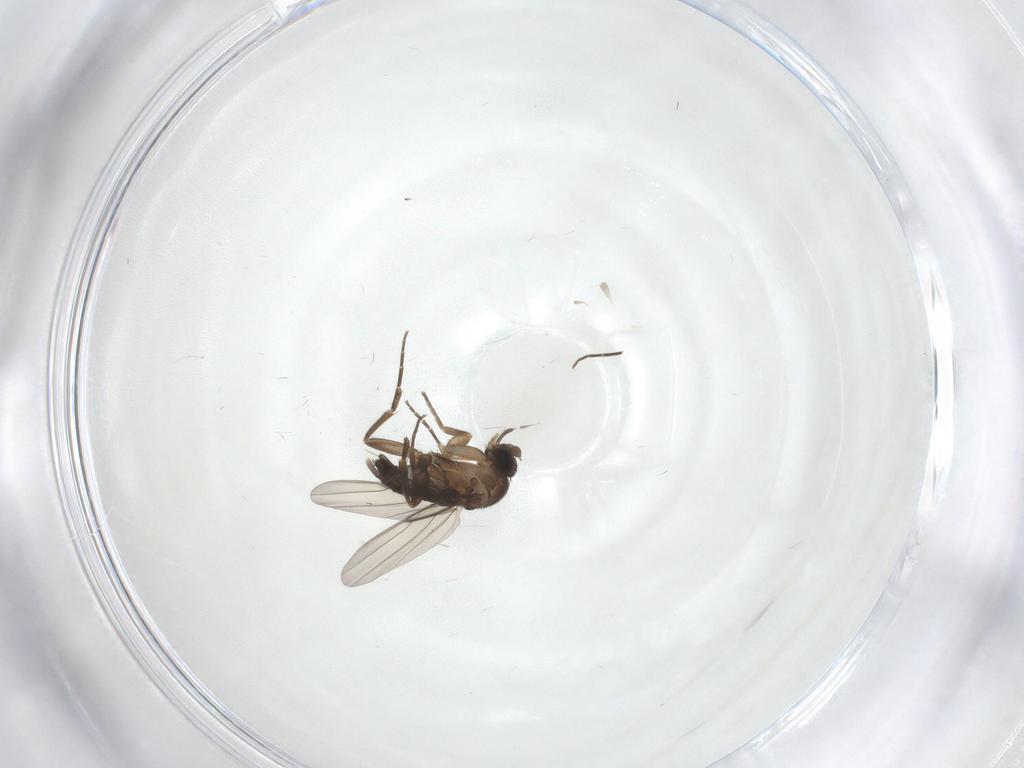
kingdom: Animalia
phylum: Arthropoda
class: Insecta
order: Diptera
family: Phoridae
